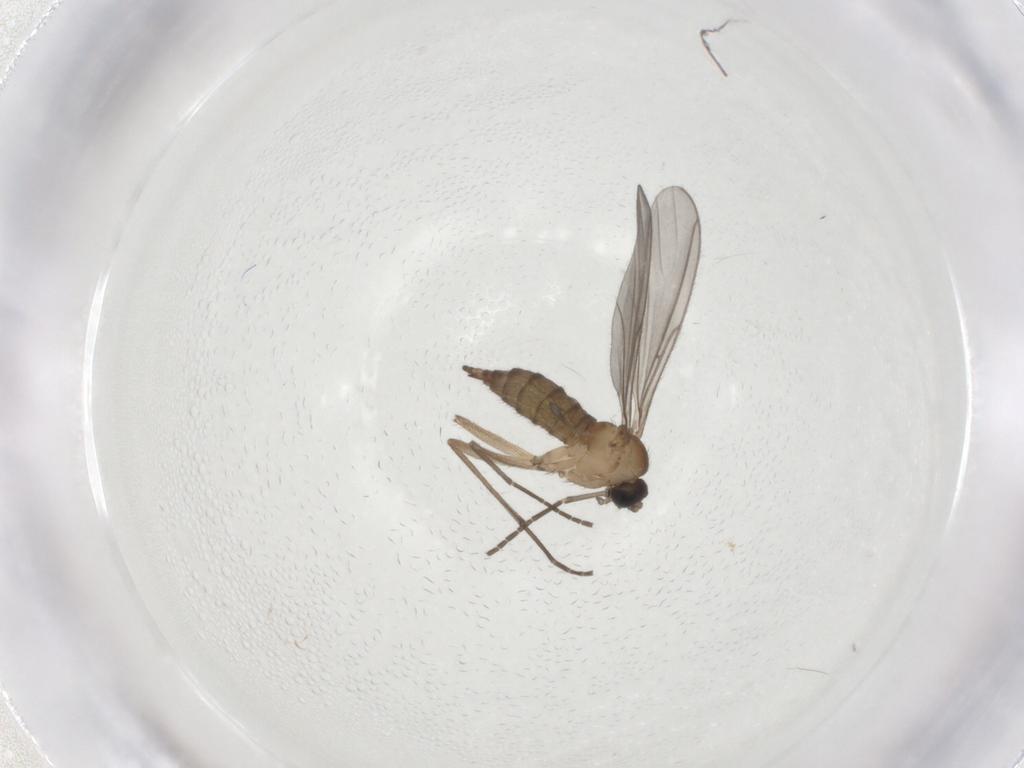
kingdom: Animalia
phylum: Arthropoda
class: Insecta
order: Diptera
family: Sciaridae
